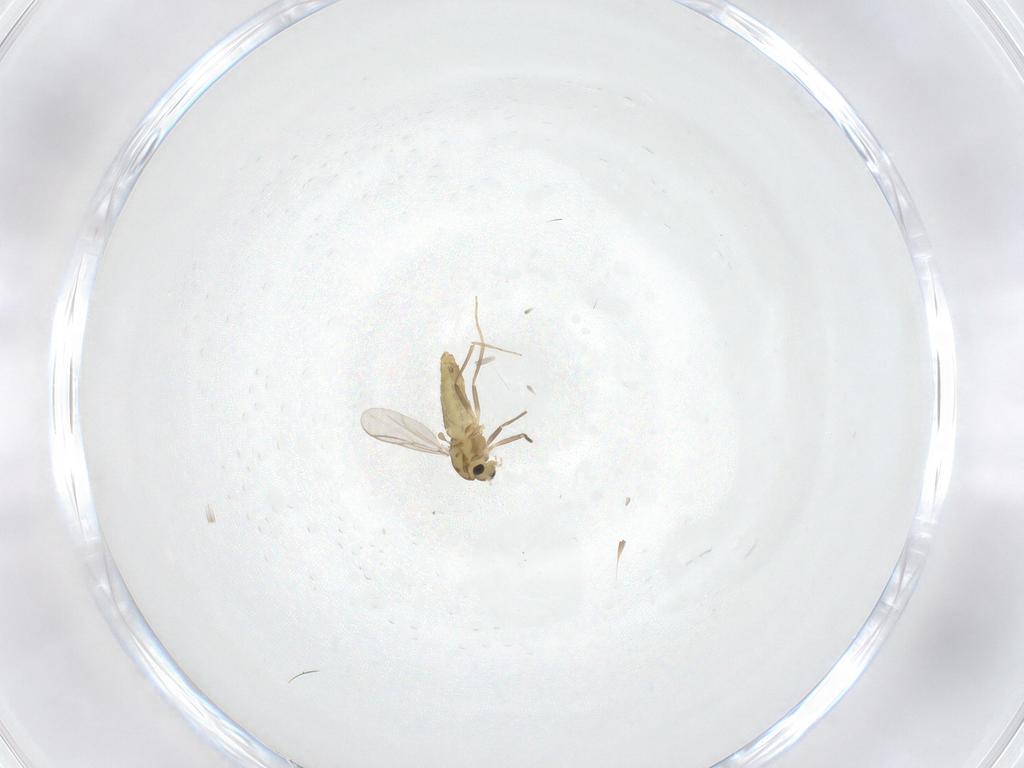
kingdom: Animalia
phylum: Arthropoda
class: Insecta
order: Diptera
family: Chironomidae
